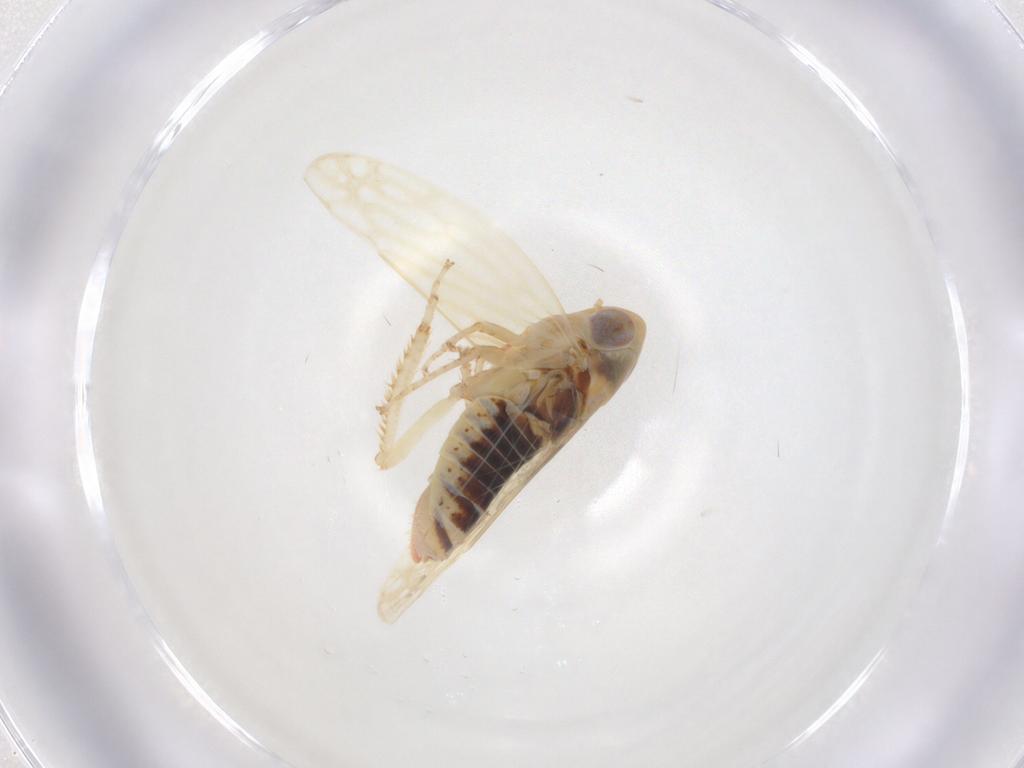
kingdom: Animalia
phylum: Arthropoda
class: Insecta
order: Hemiptera
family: Cicadellidae
